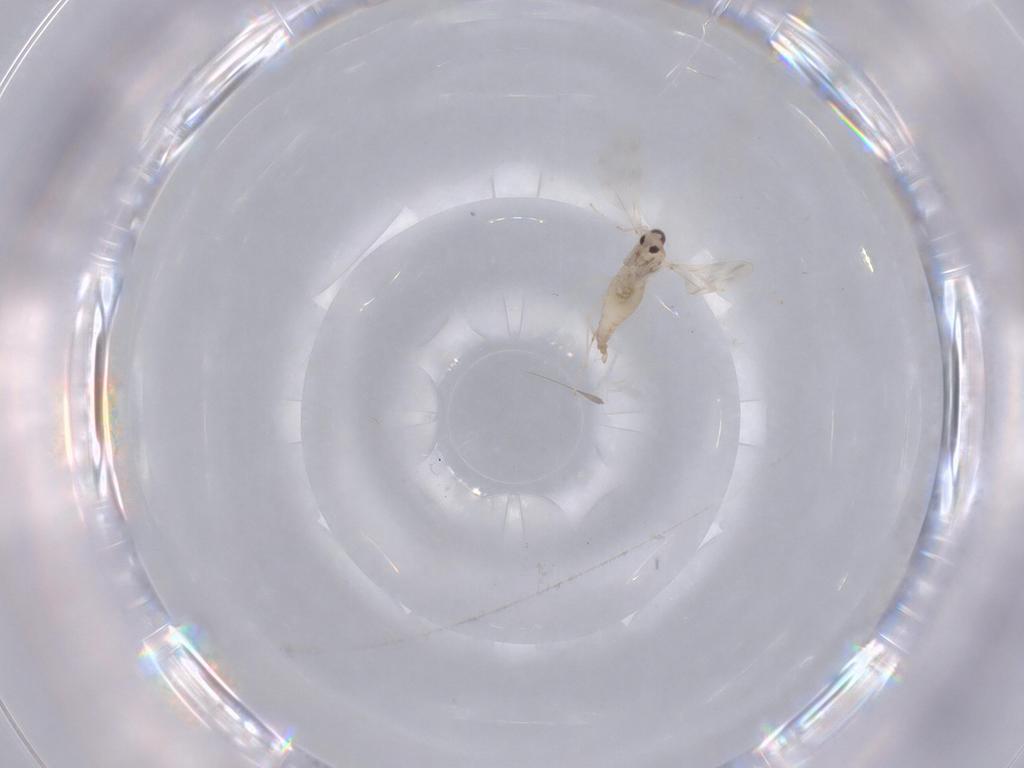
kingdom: Animalia
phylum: Arthropoda
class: Insecta
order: Diptera
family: Cecidomyiidae
